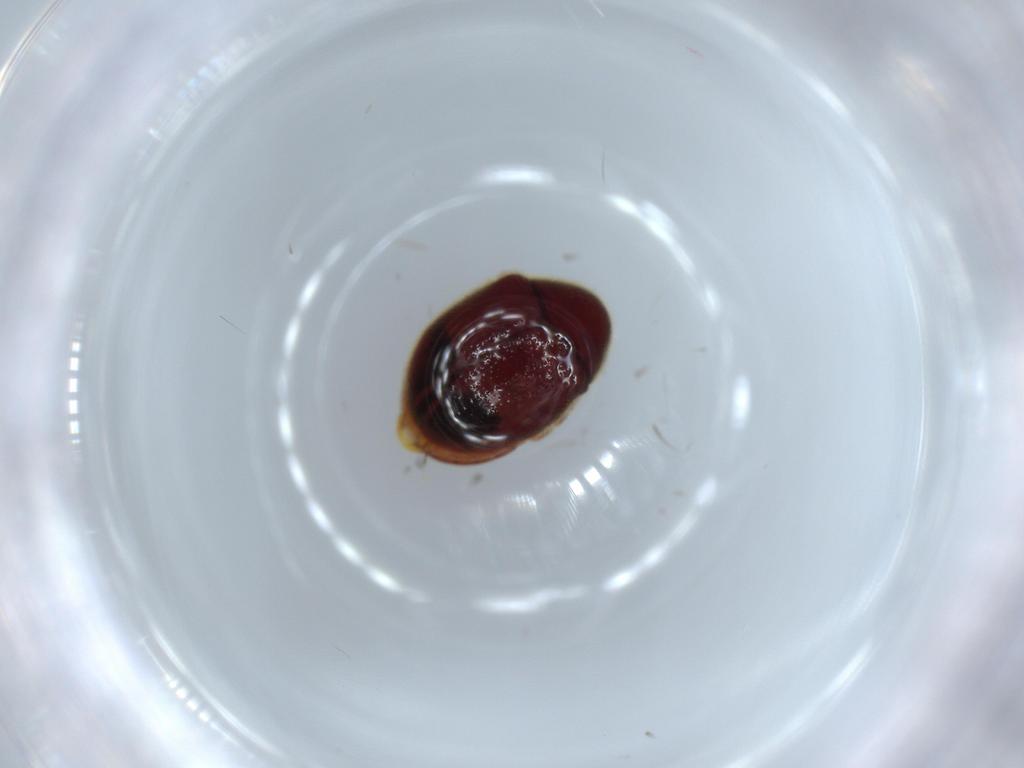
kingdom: Animalia
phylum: Arthropoda
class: Insecta
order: Coleoptera
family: Ptinidae
